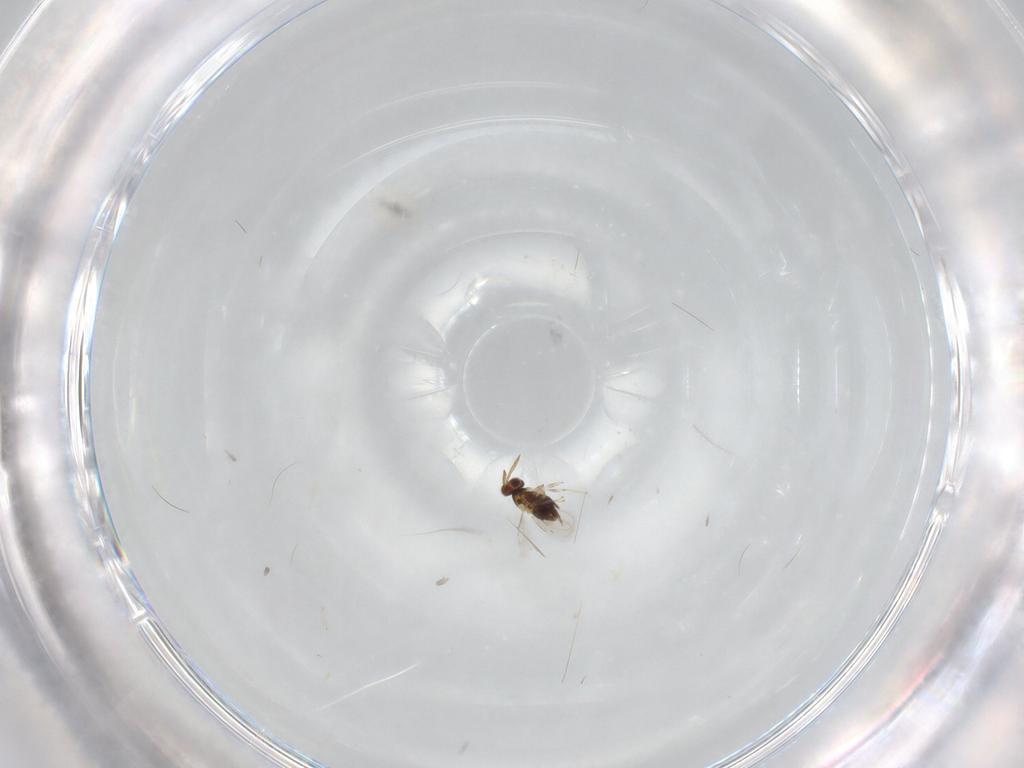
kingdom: Animalia
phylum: Arthropoda
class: Insecta
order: Hymenoptera
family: Ichneumonidae
